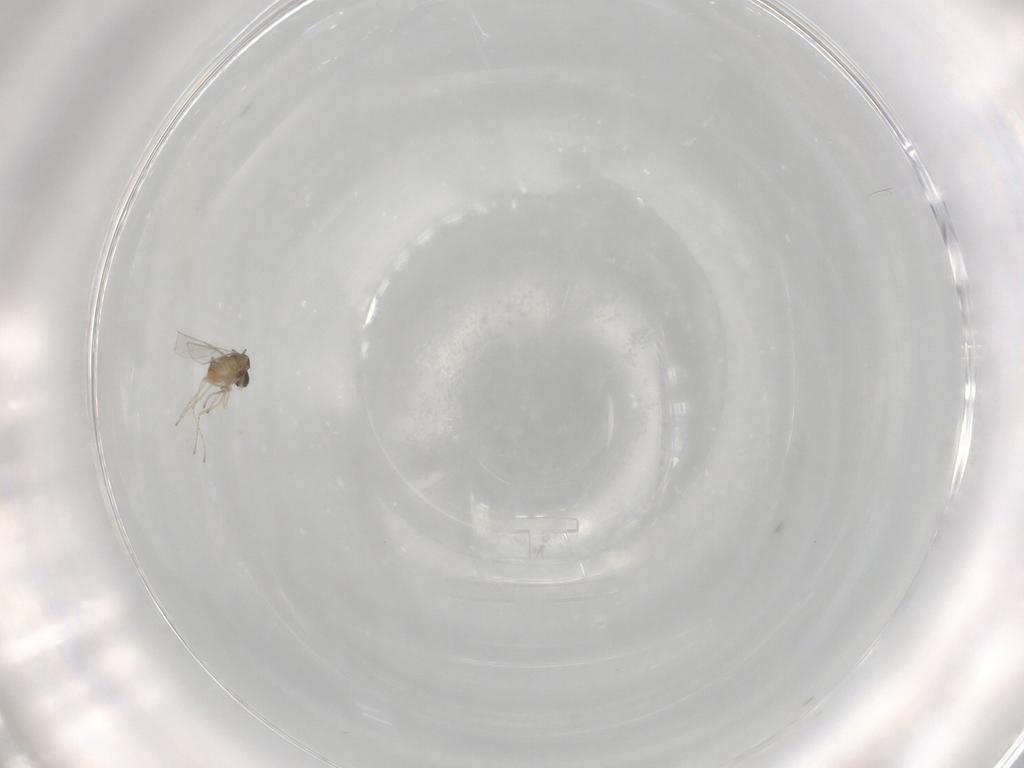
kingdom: Animalia
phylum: Arthropoda
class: Insecta
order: Diptera
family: Cecidomyiidae
